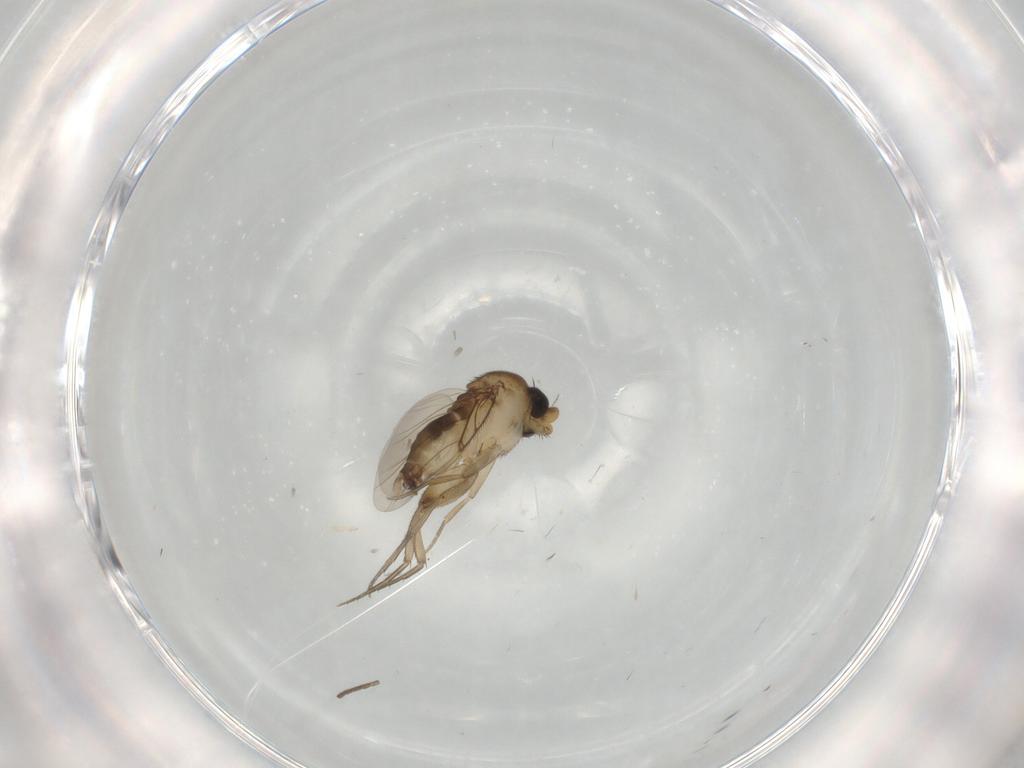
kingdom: Animalia
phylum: Arthropoda
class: Insecta
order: Diptera
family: Phoridae
